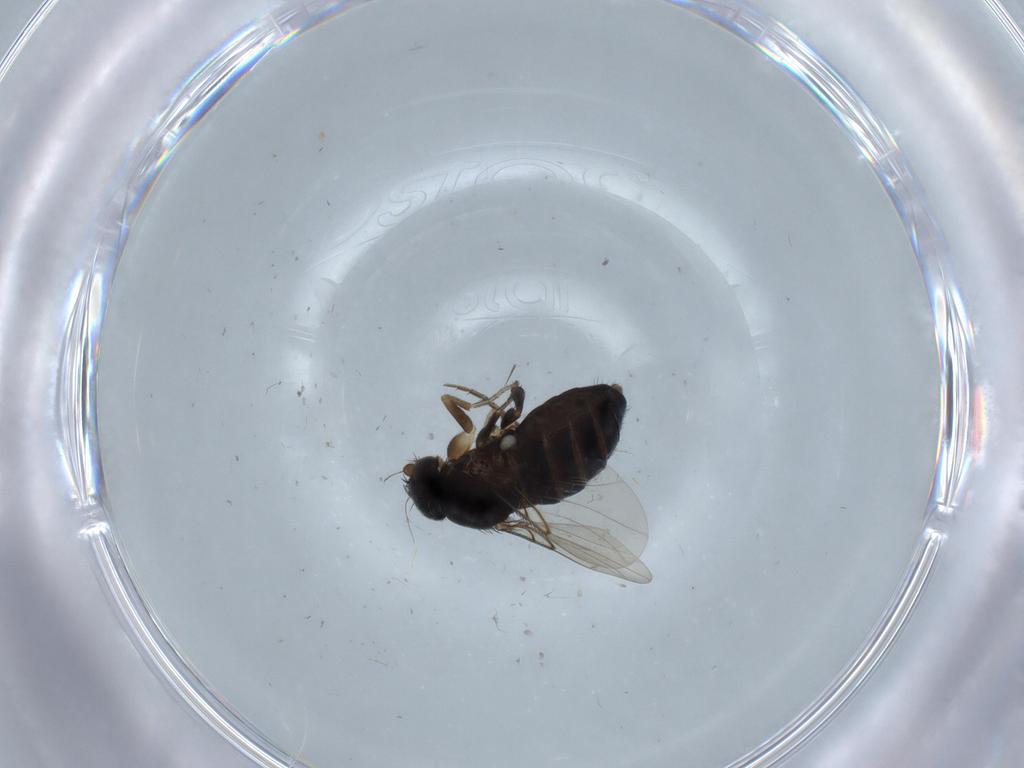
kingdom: Animalia
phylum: Arthropoda
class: Insecta
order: Diptera
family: Phoridae
